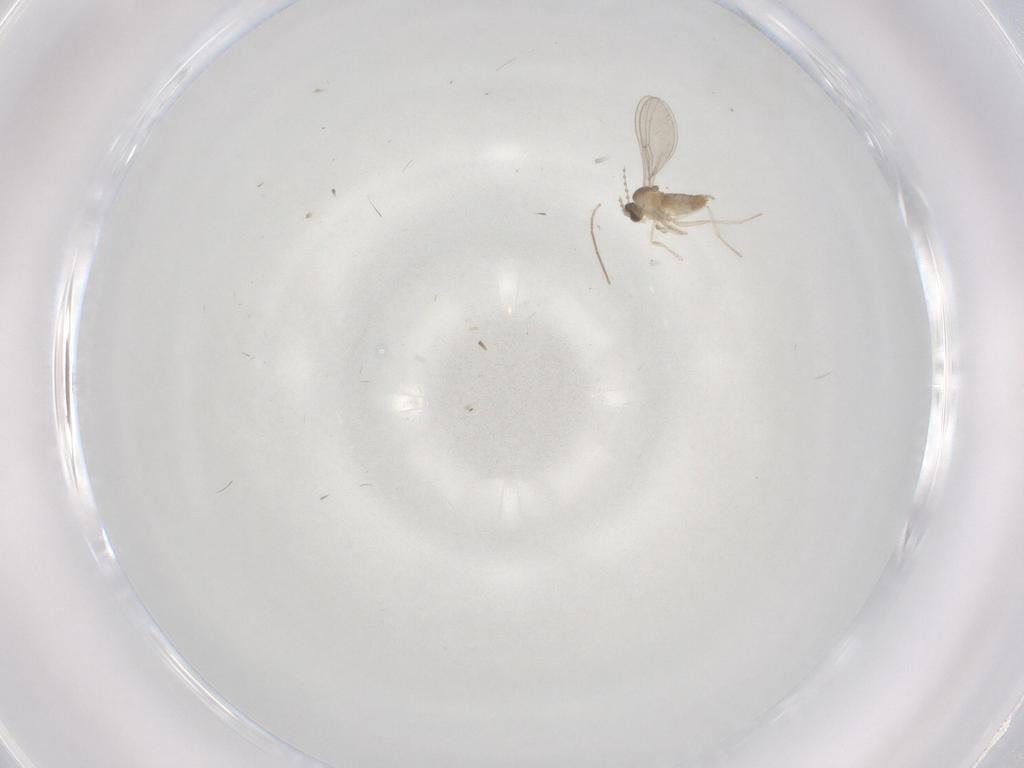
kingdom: Animalia
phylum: Arthropoda
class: Insecta
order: Diptera
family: Cecidomyiidae
